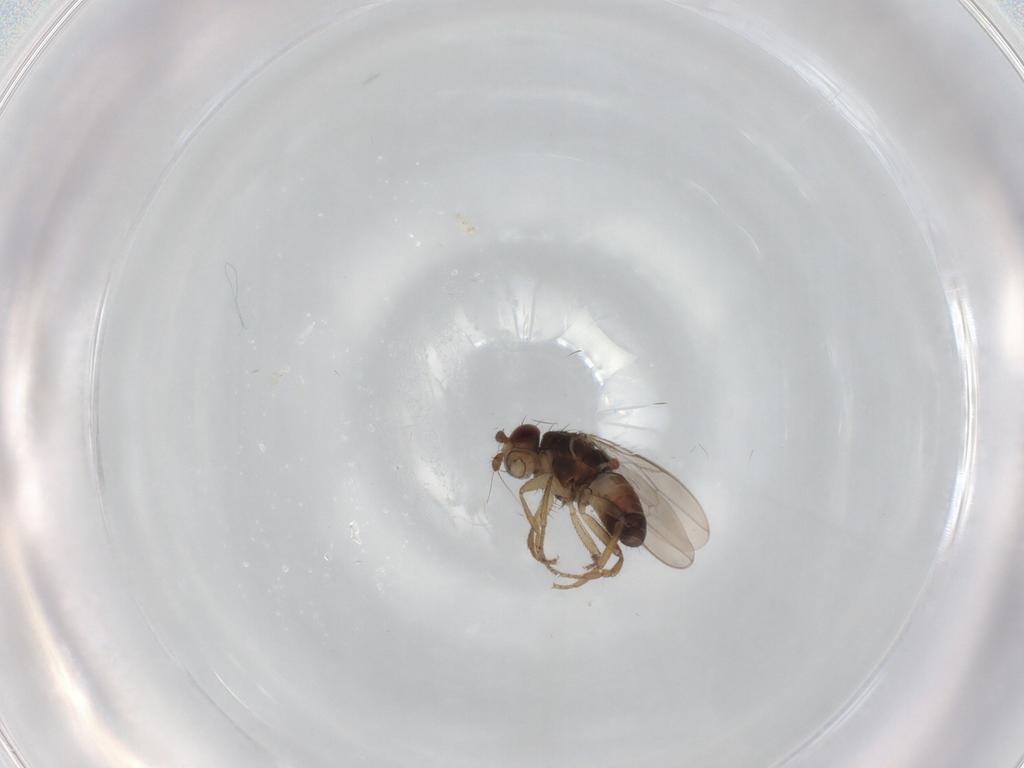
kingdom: Animalia
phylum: Arthropoda
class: Insecta
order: Diptera
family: Sphaeroceridae
